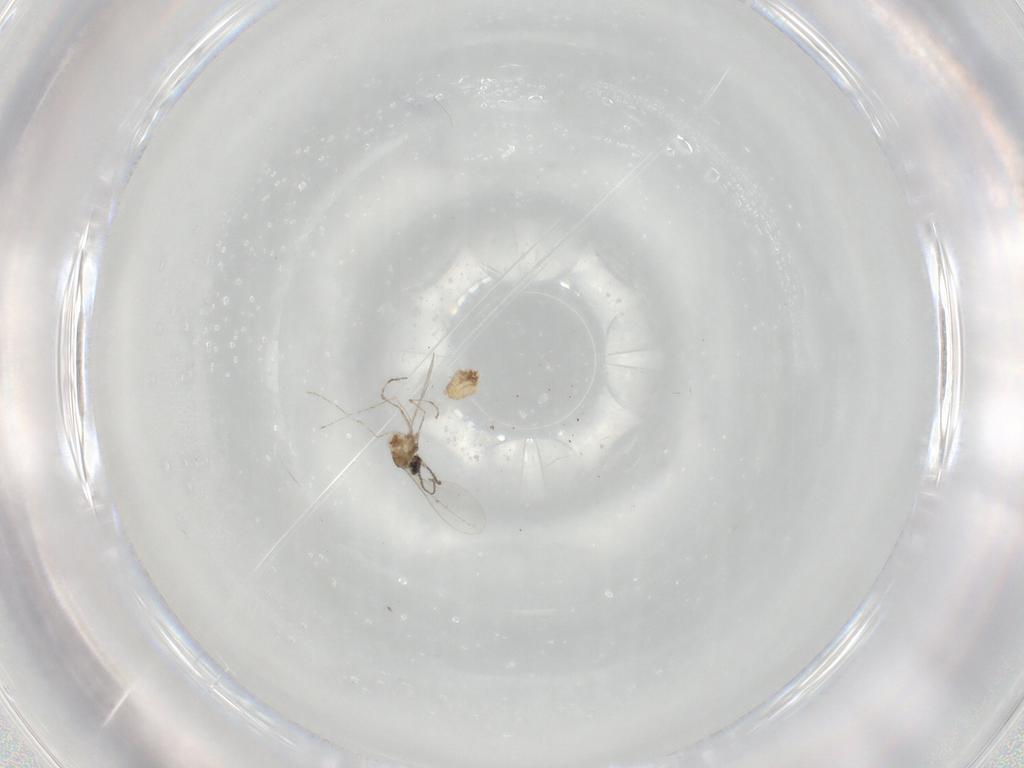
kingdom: Animalia
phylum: Arthropoda
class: Insecta
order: Diptera
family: Cecidomyiidae
